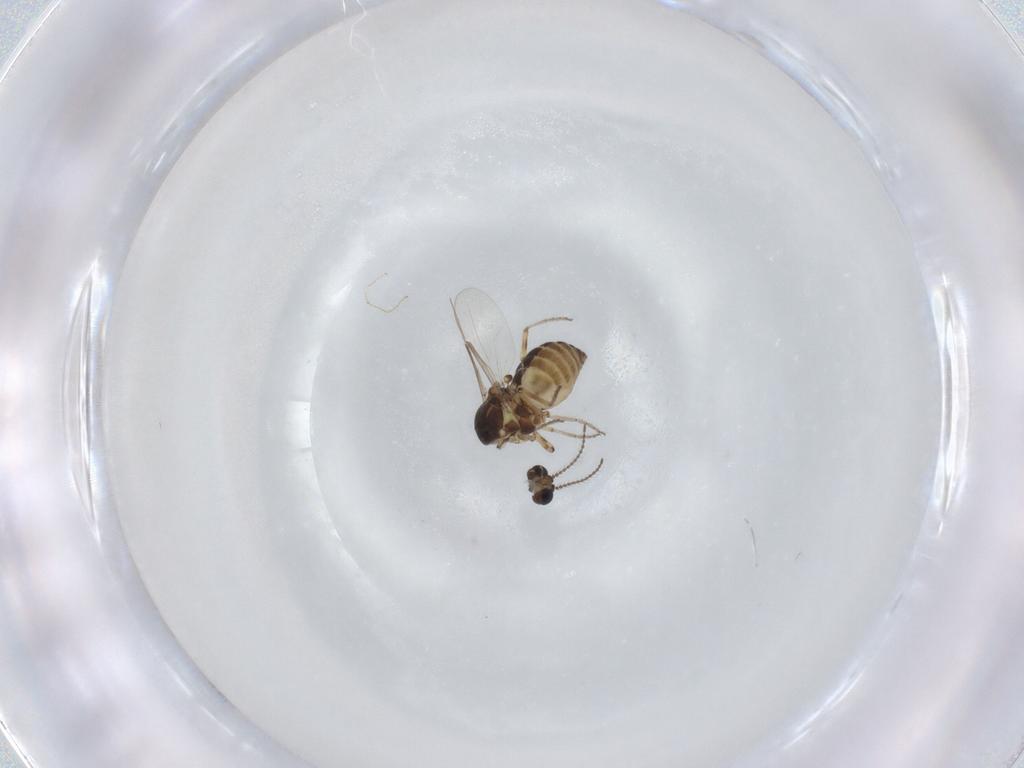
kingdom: Animalia
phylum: Arthropoda
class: Insecta
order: Diptera
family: Ceratopogonidae
